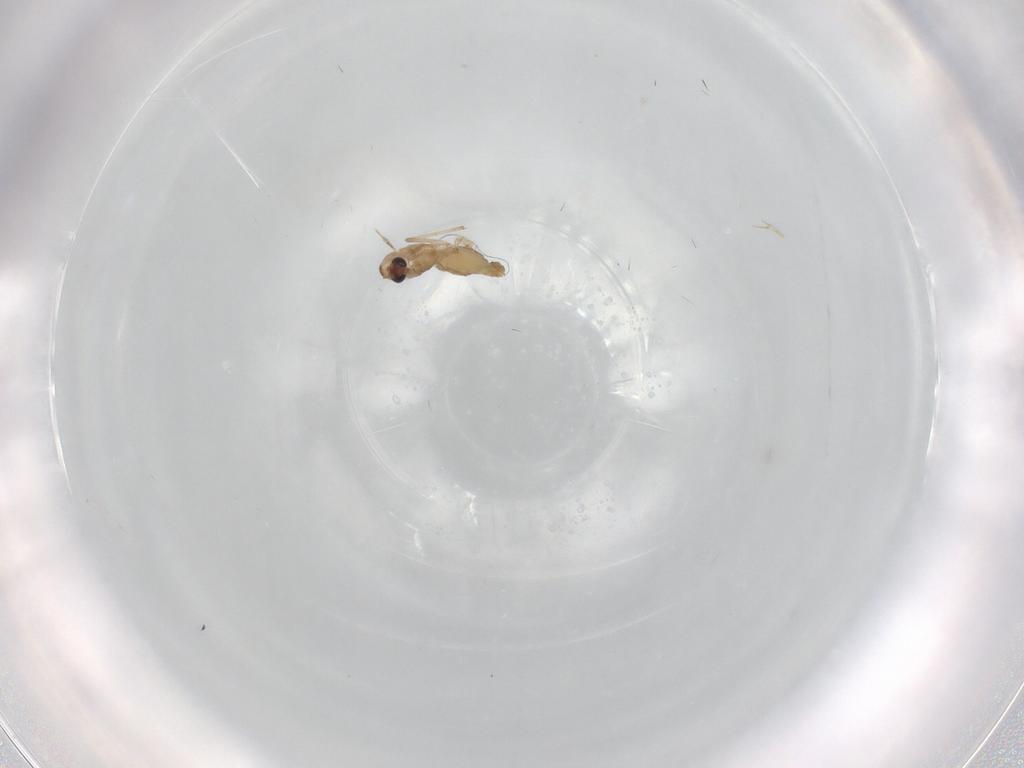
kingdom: Animalia
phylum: Arthropoda
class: Insecta
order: Diptera
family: Chironomidae
